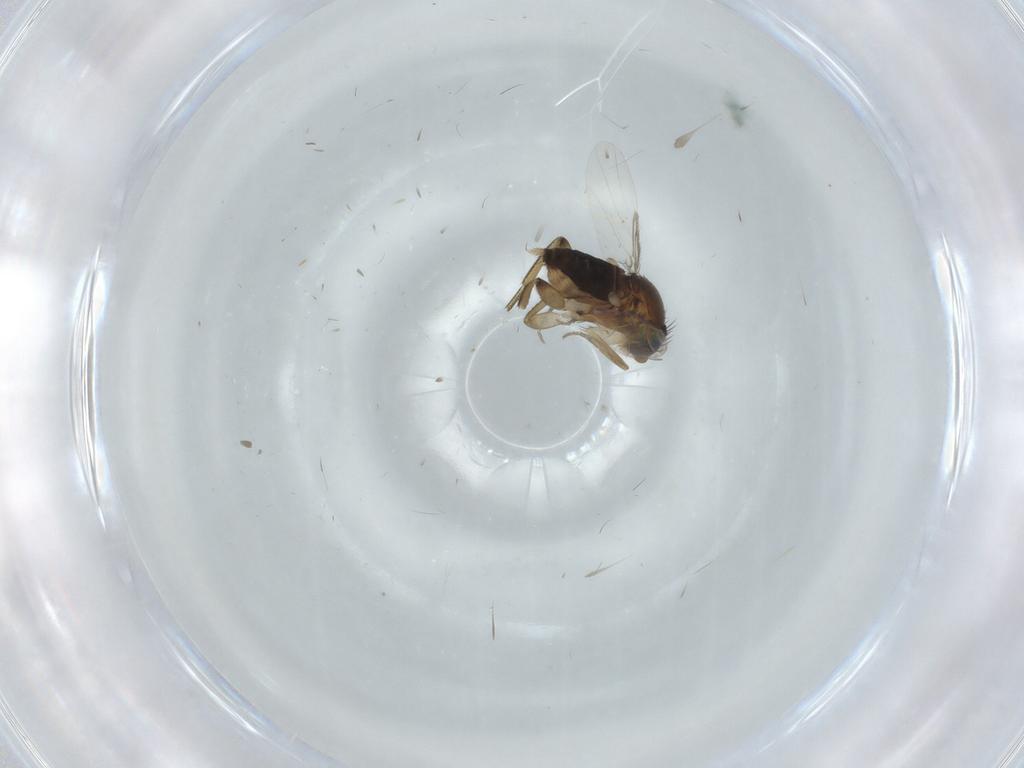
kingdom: Animalia
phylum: Arthropoda
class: Insecta
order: Diptera
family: Phoridae
